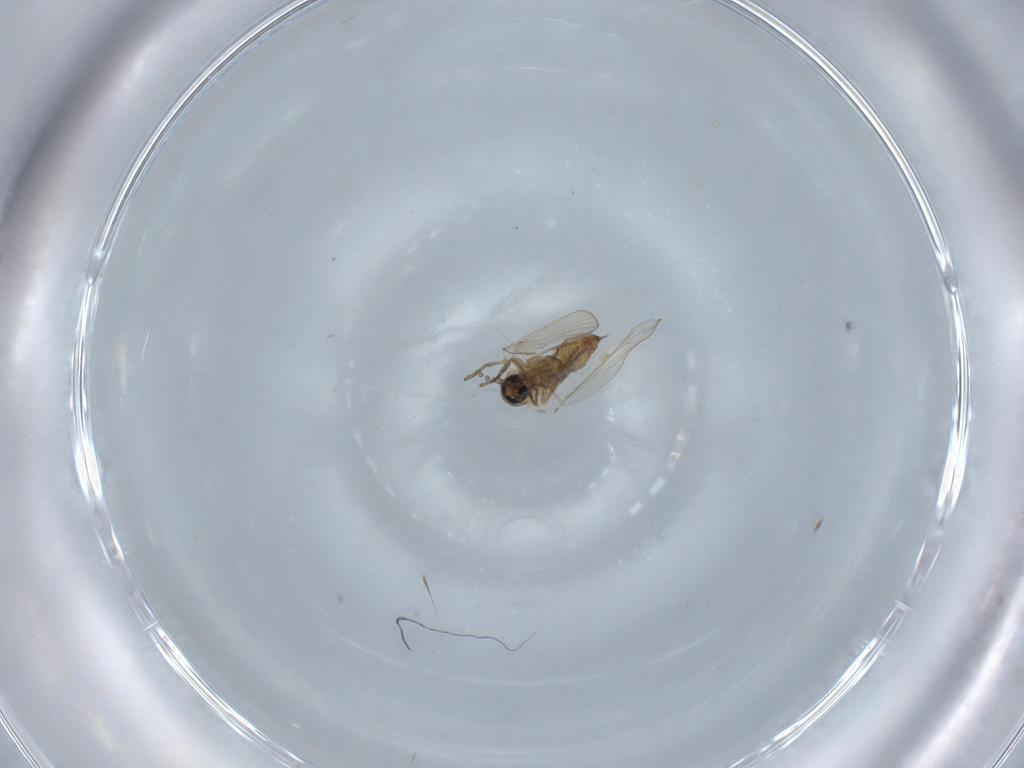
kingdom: Animalia
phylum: Arthropoda
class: Insecta
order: Diptera
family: Psychodidae
